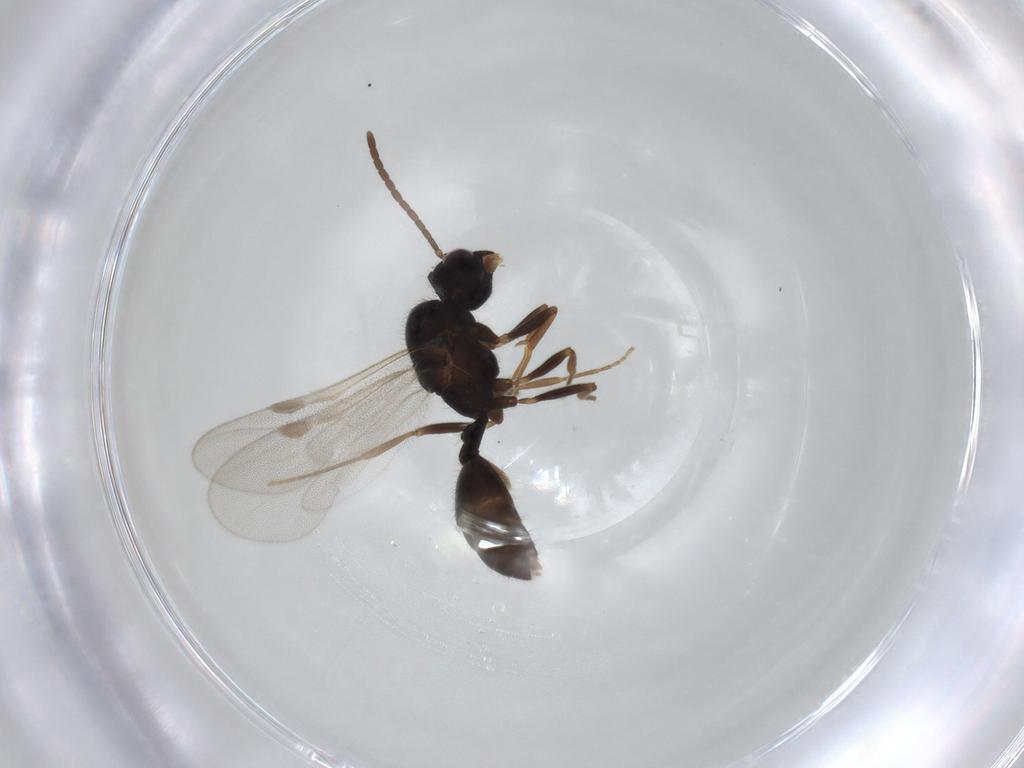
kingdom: Animalia
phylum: Arthropoda
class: Insecta
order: Hymenoptera
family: Formicidae
